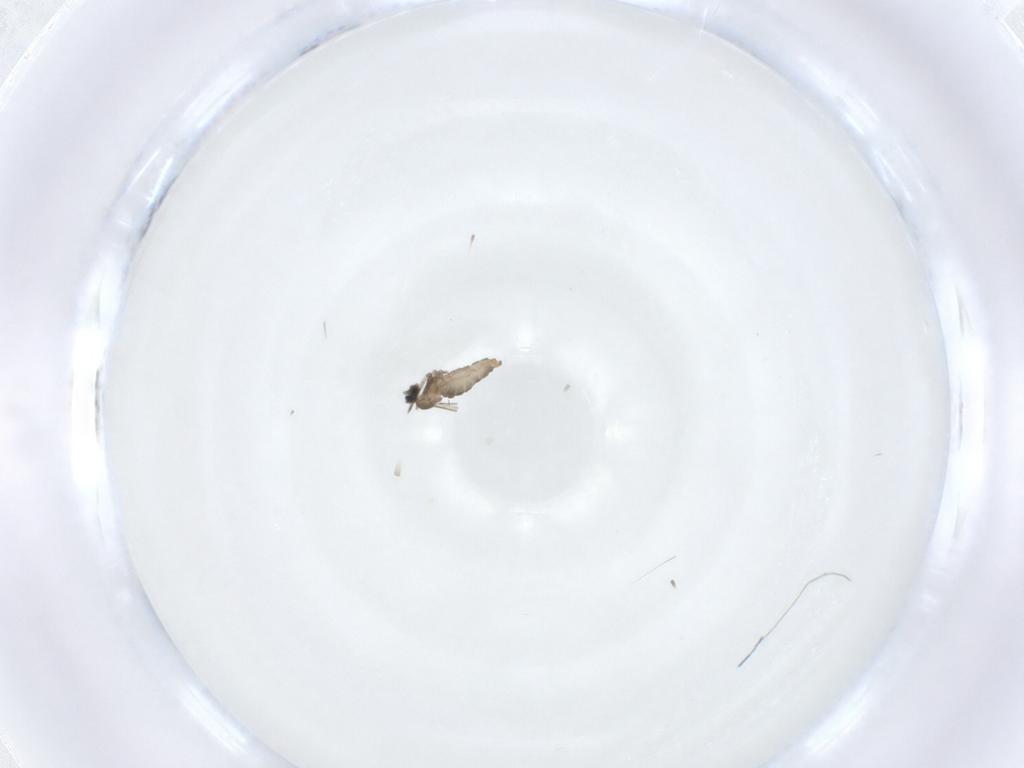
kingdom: Animalia
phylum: Arthropoda
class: Insecta
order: Diptera
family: Cecidomyiidae
